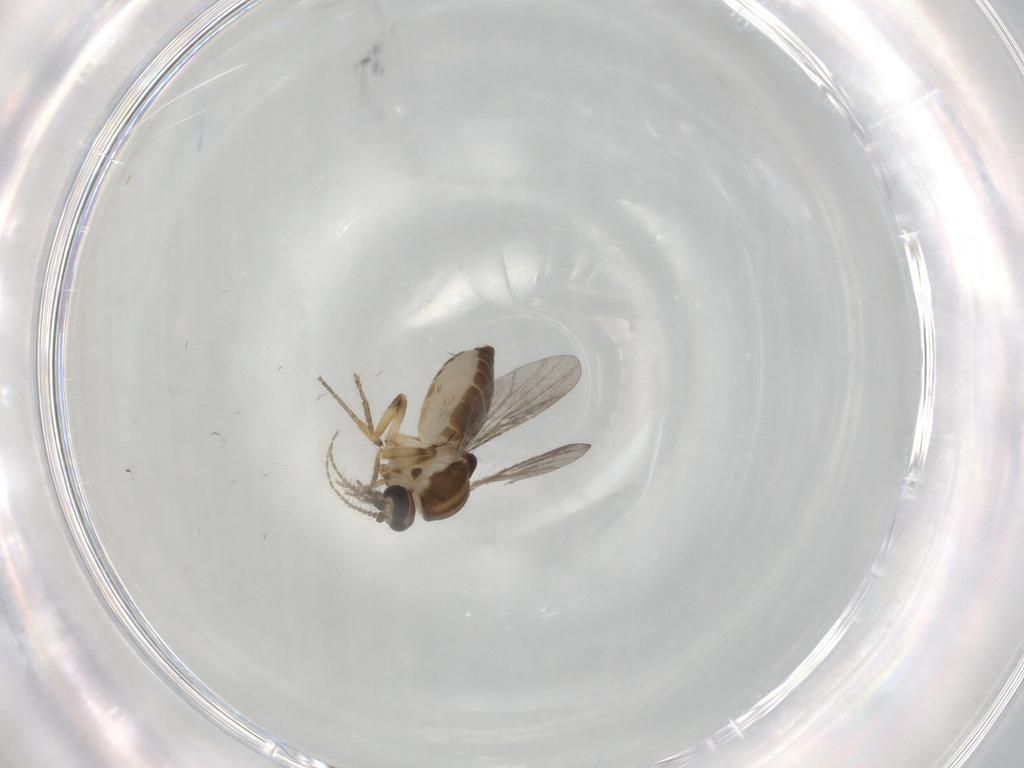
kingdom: Animalia
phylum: Arthropoda
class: Insecta
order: Diptera
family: Ceratopogonidae
